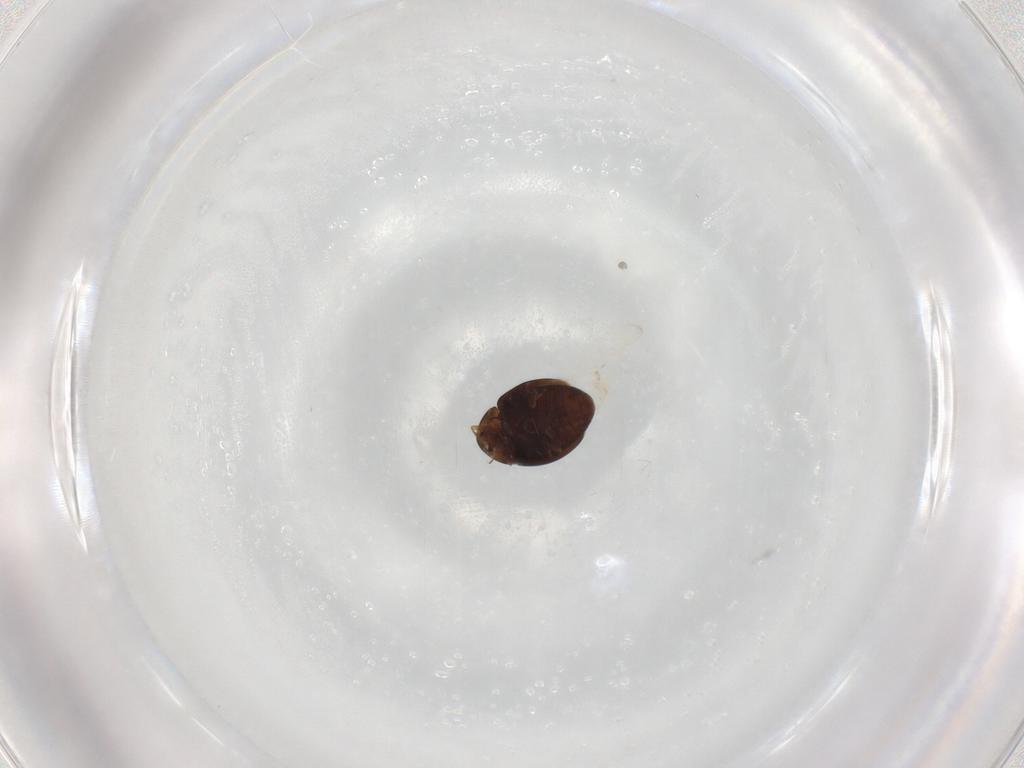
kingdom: Animalia
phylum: Arthropoda
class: Insecta
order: Coleoptera
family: Corylophidae
